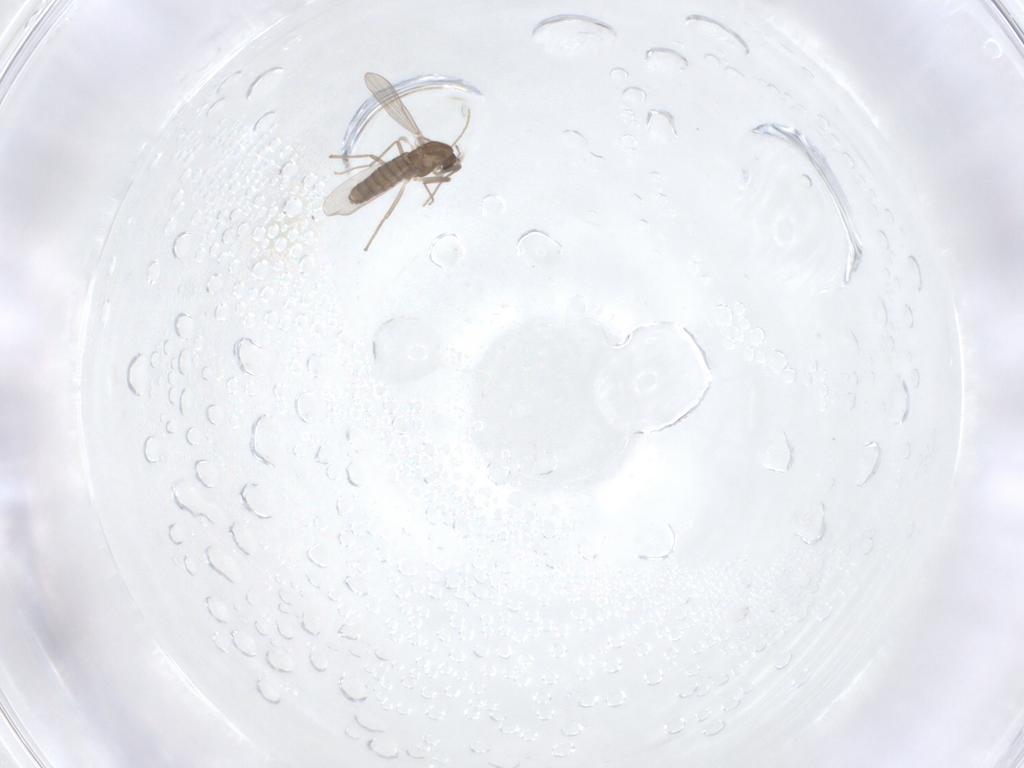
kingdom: Animalia
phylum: Arthropoda
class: Insecta
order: Diptera
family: Chironomidae
